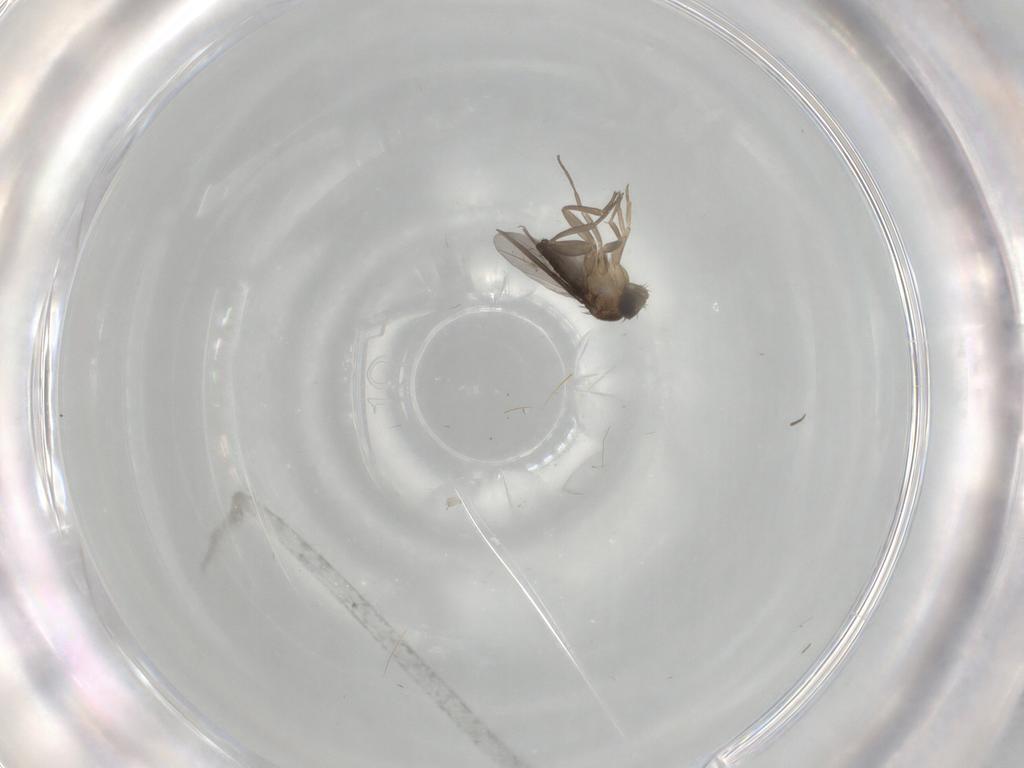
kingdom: Animalia
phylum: Arthropoda
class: Insecta
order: Diptera
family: Phoridae
